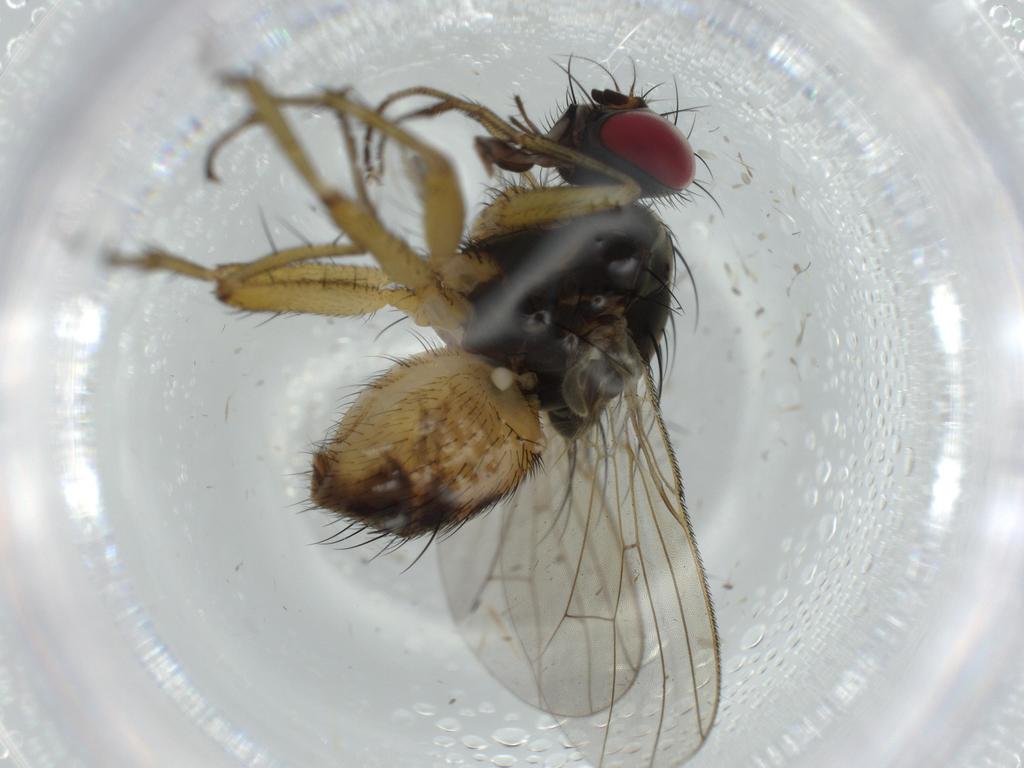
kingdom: Animalia
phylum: Arthropoda
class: Insecta
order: Diptera
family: Muscidae
